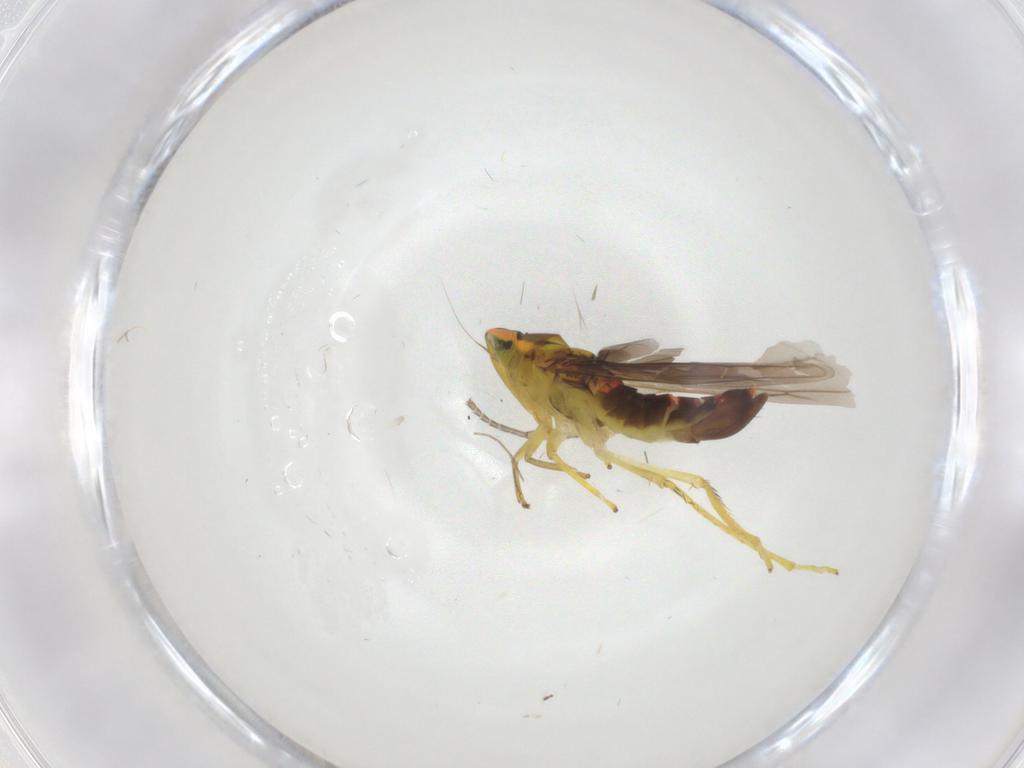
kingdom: Animalia
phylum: Arthropoda
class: Insecta
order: Hemiptera
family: Cicadellidae
